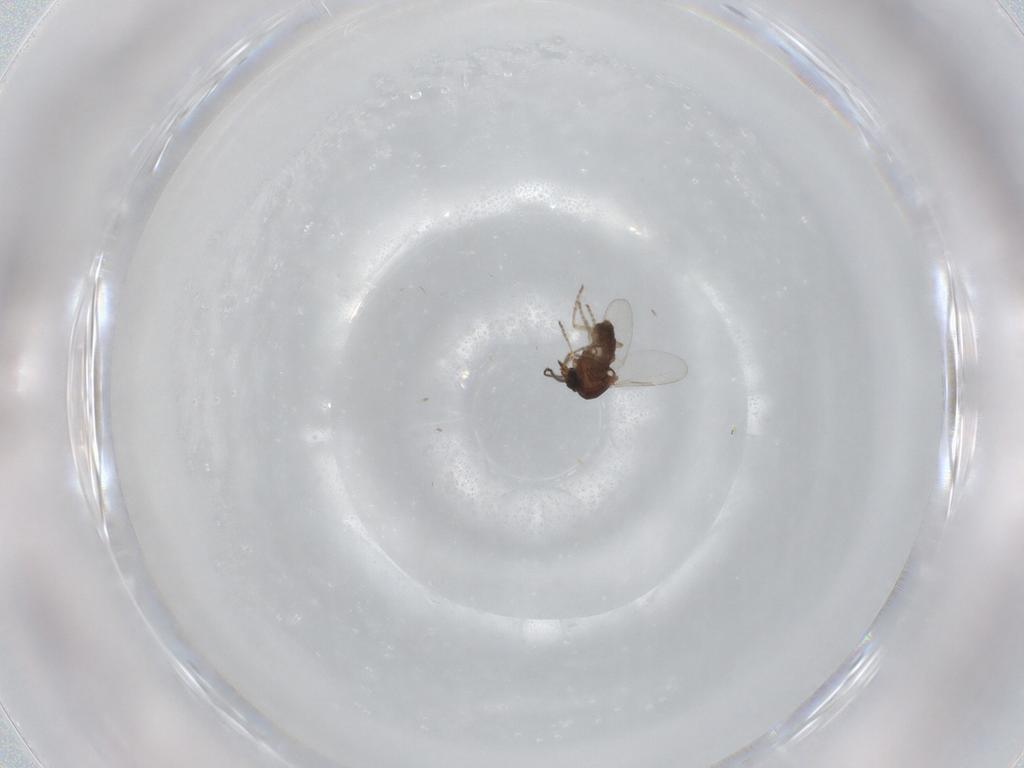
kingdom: Animalia
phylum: Arthropoda
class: Insecta
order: Diptera
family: Ceratopogonidae
